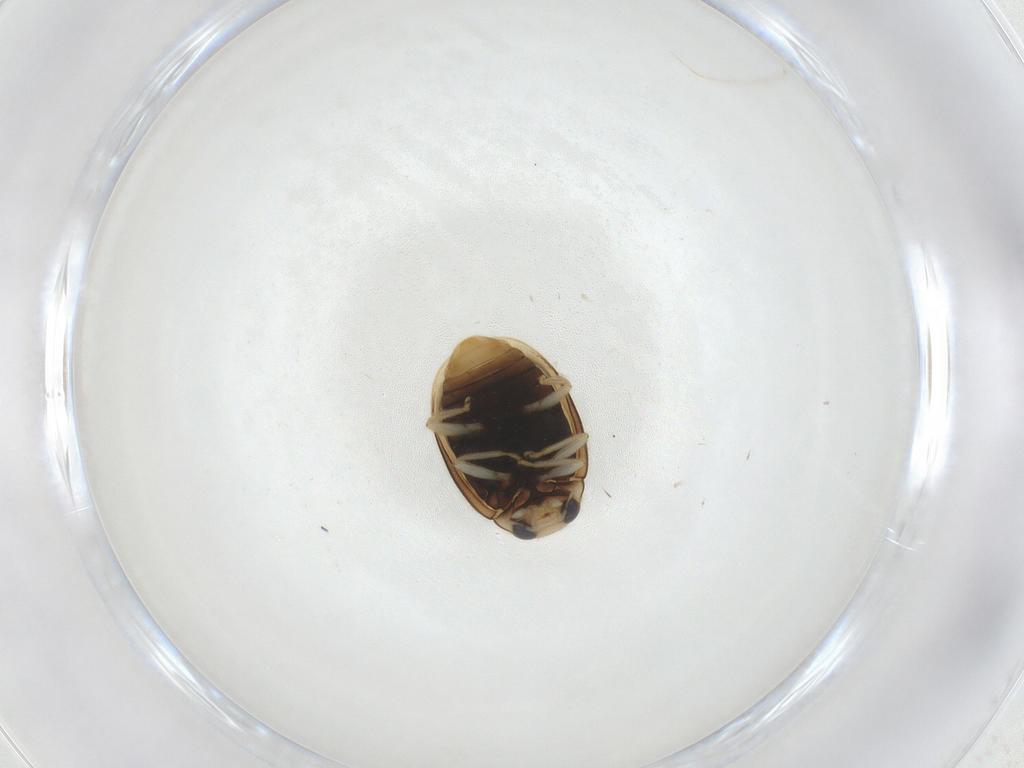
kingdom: Animalia
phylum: Arthropoda
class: Insecta
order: Coleoptera
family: Coccinellidae
